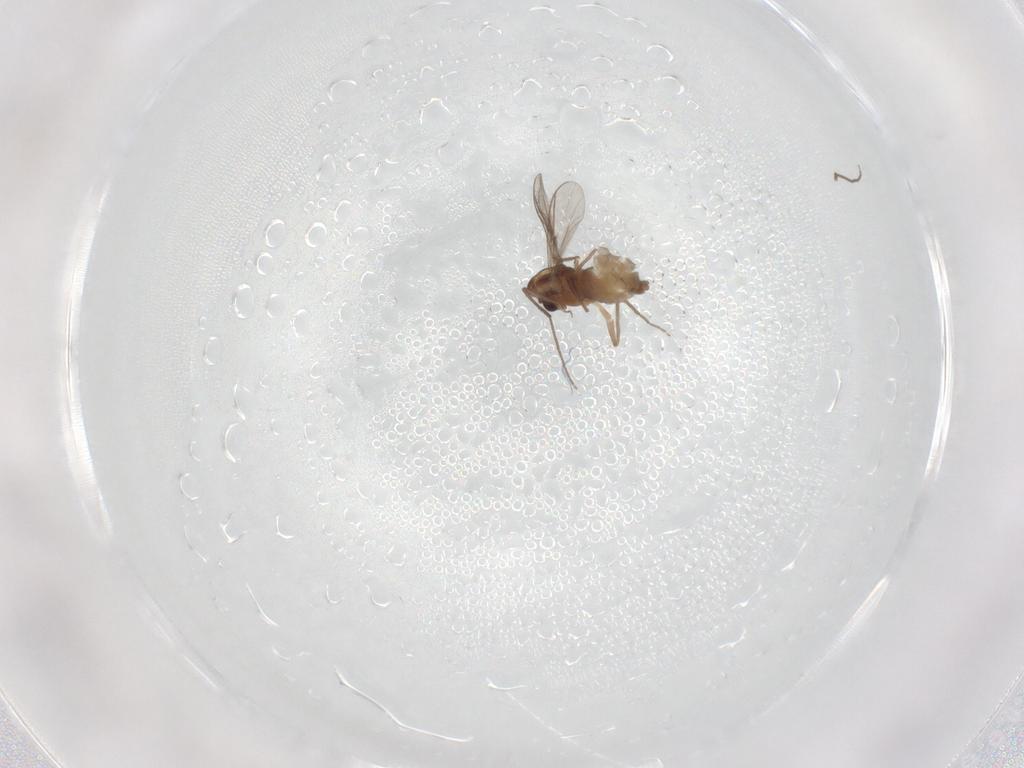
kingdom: Animalia
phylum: Arthropoda
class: Insecta
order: Diptera
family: Chironomidae
